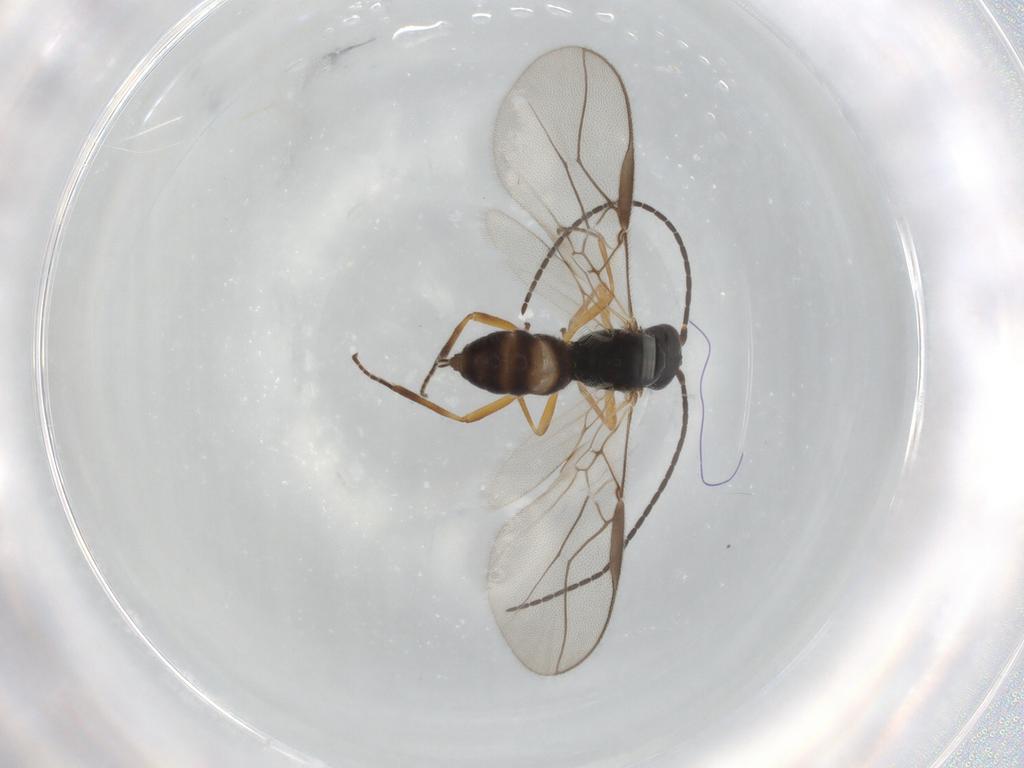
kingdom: Animalia
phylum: Arthropoda
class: Insecta
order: Hymenoptera
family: Braconidae
